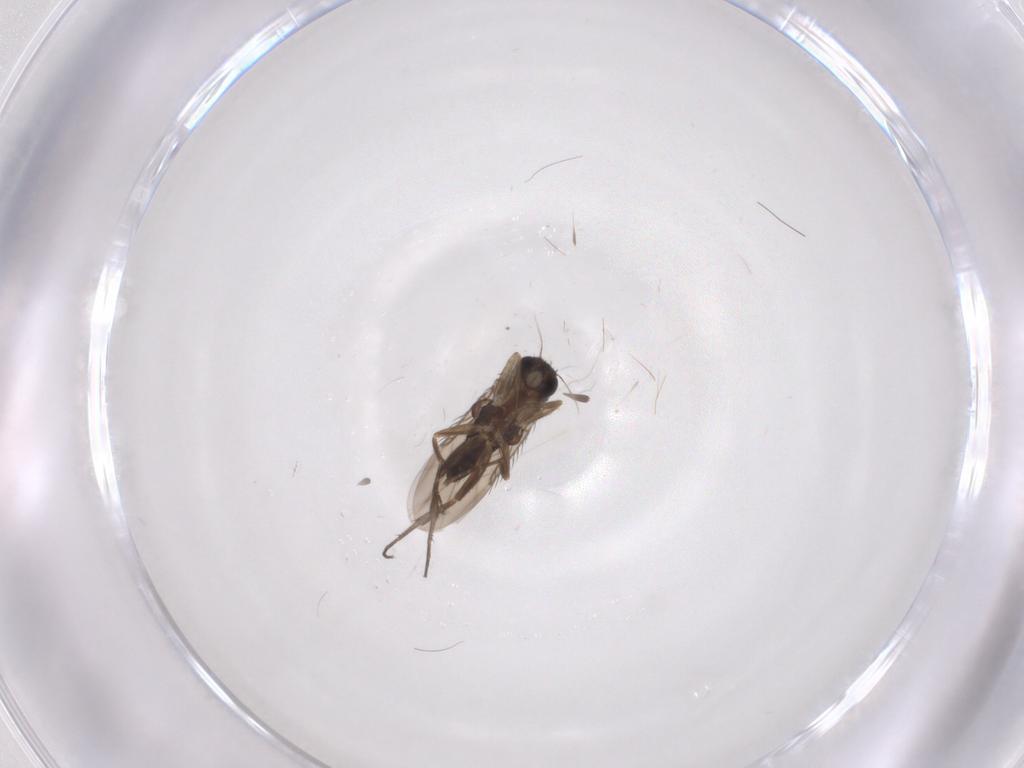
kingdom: Animalia
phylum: Arthropoda
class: Insecta
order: Diptera
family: Phoridae
